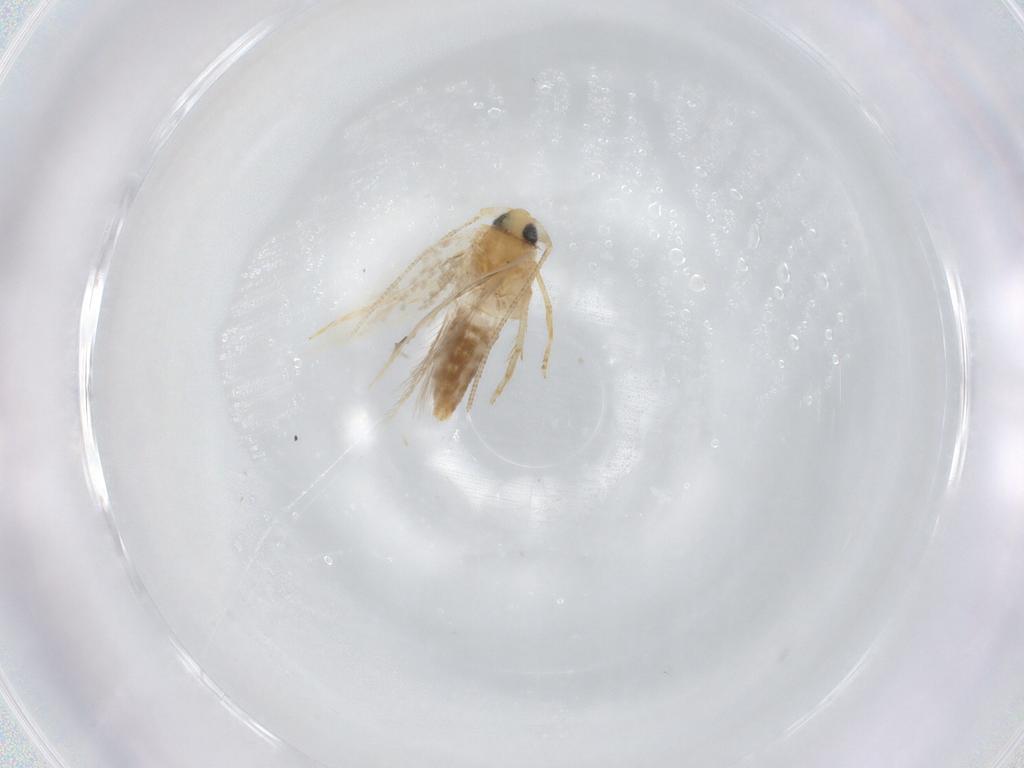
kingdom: Animalia
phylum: Arthropoda
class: Insecta
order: Lepidoptera
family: Opostegidae
